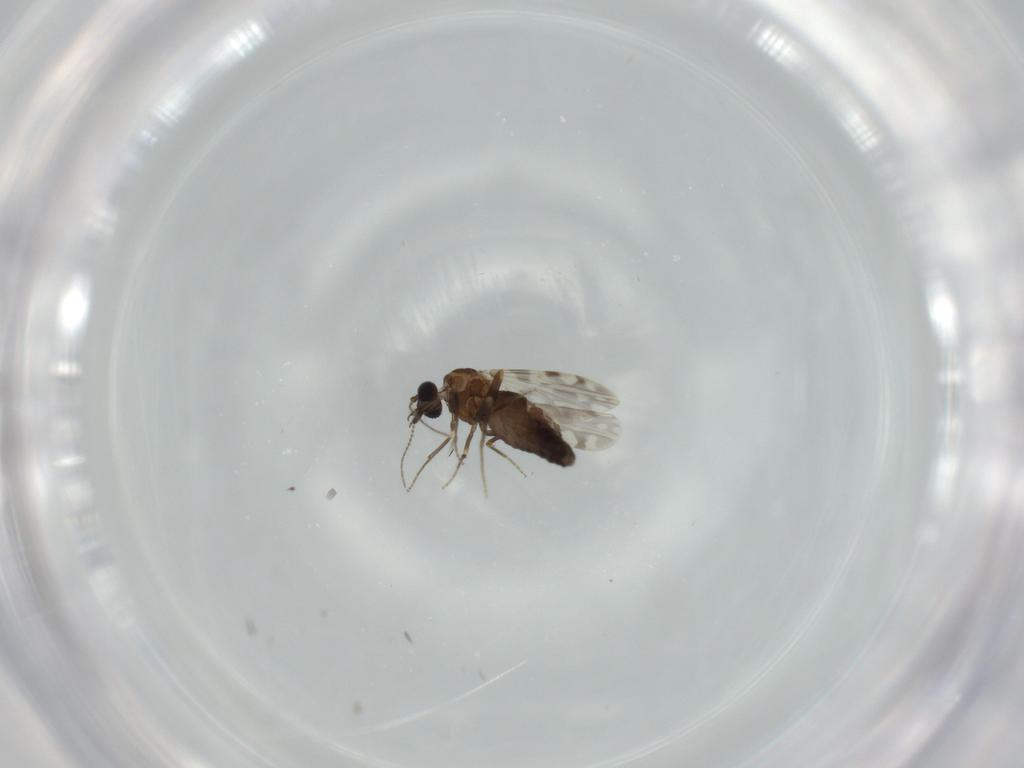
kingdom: Animalia
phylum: Arthropoda
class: Insecta
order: Diptera
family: Ceratopogonidae
